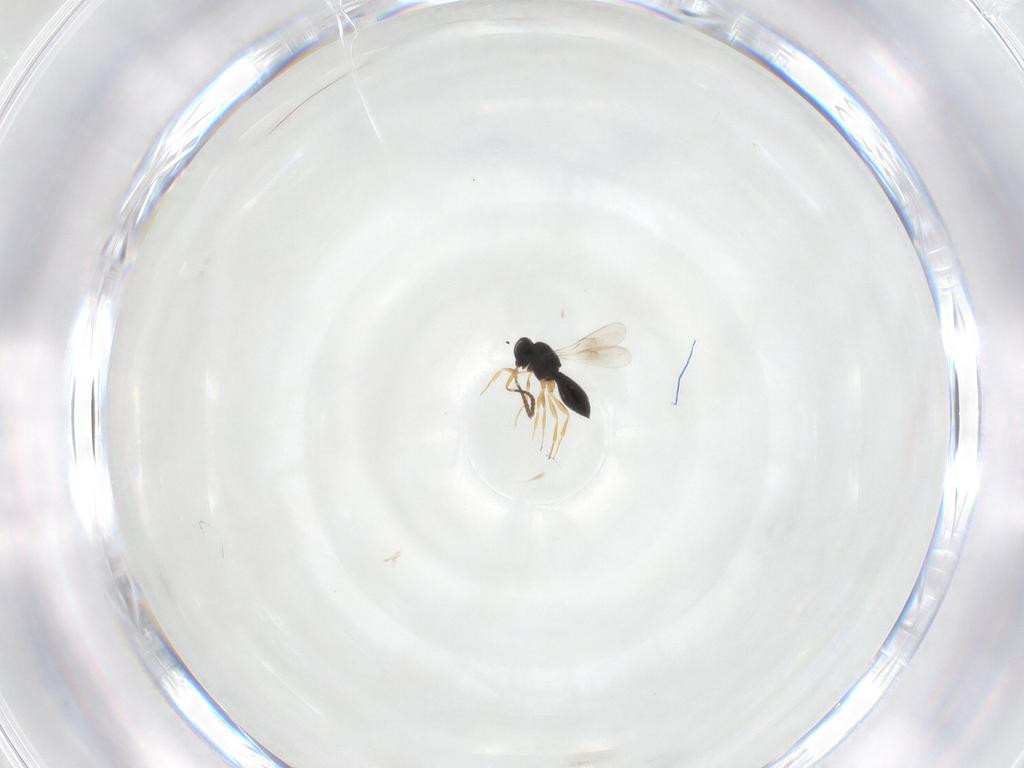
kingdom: Animalia
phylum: Arthropoda
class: Insecta
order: Hymenoptera
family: Scelionidae
